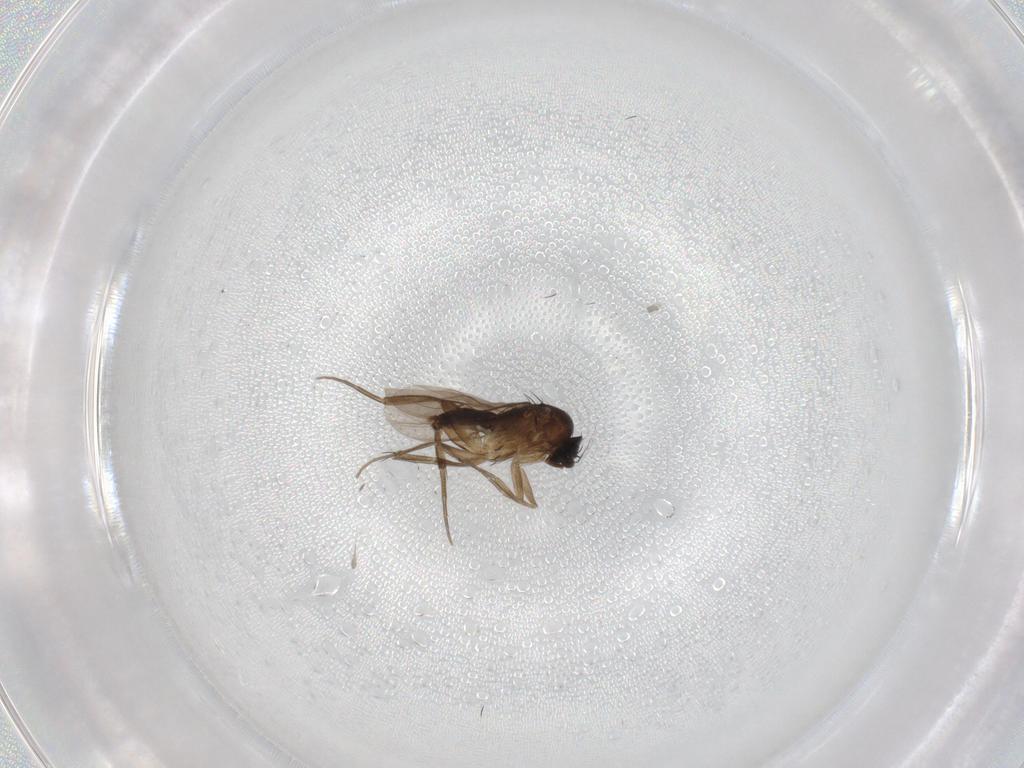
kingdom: Animalia
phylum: Arthropoda
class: Insecta
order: Diptera
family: Phoridae
